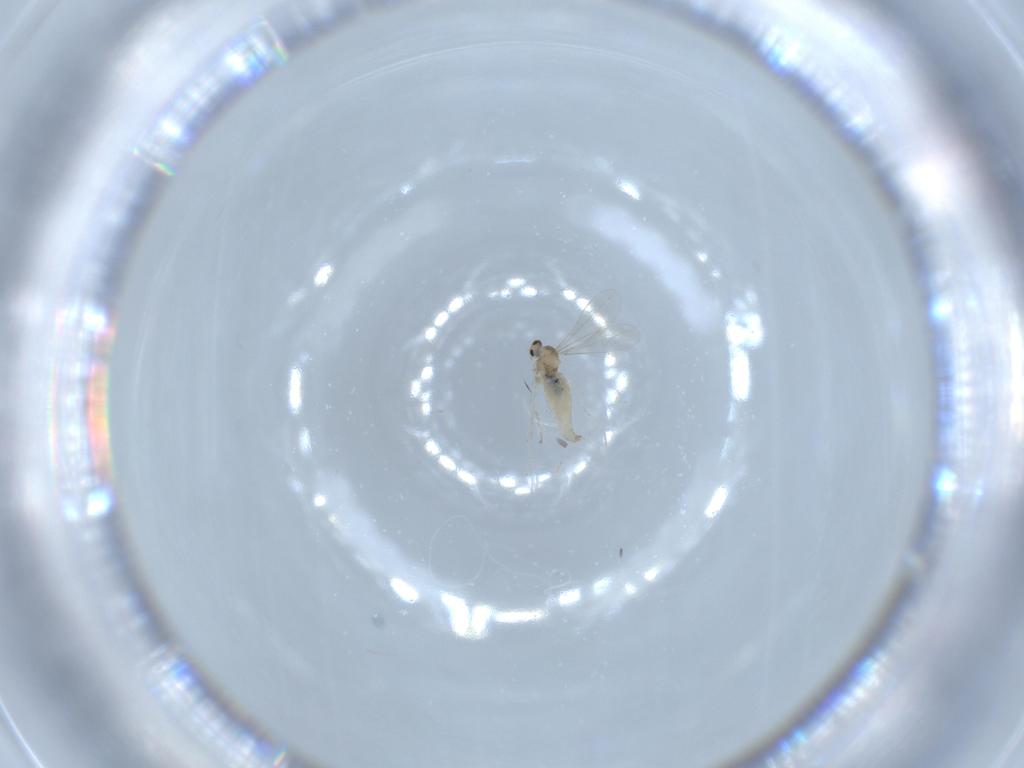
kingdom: Animalia
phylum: Arthropoda
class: Insecta
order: Diptera
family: Cecidomyiidae
